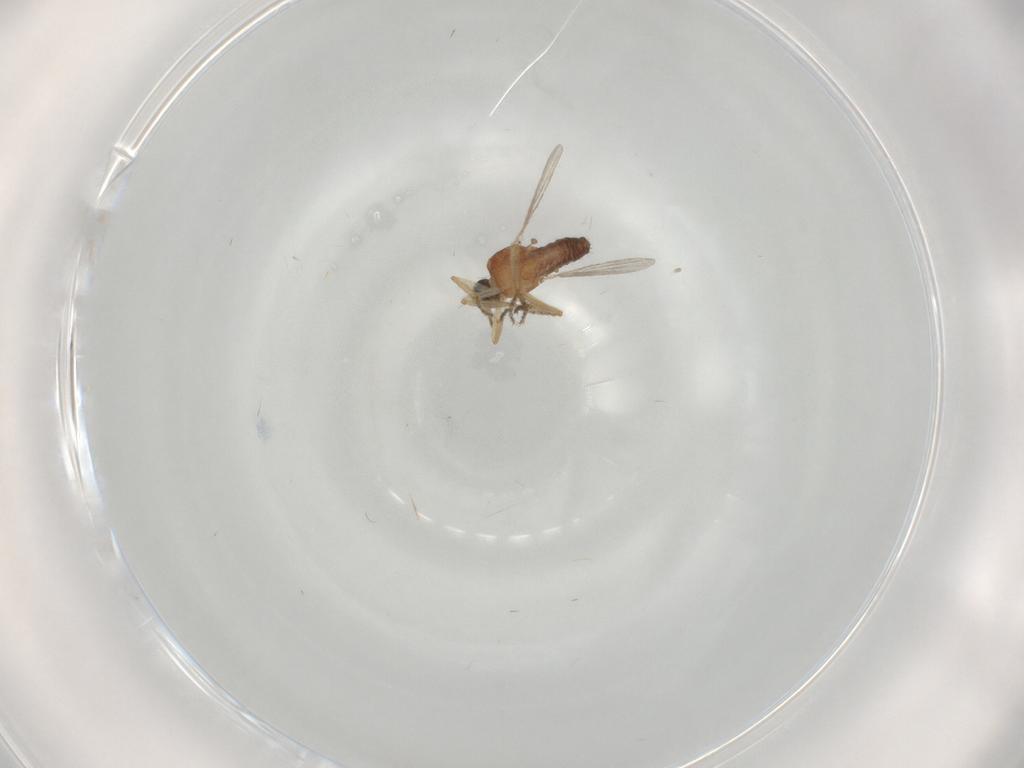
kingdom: Animalia
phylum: Arthropoda
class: Insecta
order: Diptera
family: Ceratopogonidae
